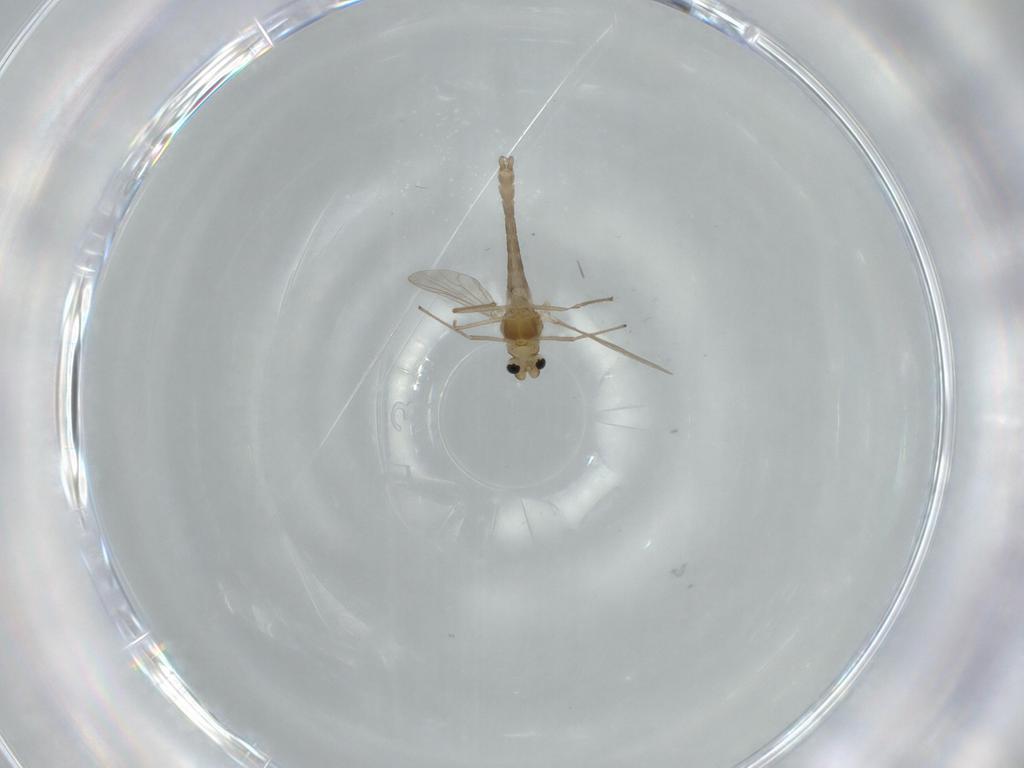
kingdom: Animalia
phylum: Arthropoda
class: Insecta
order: Diptera
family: Chironomidae
